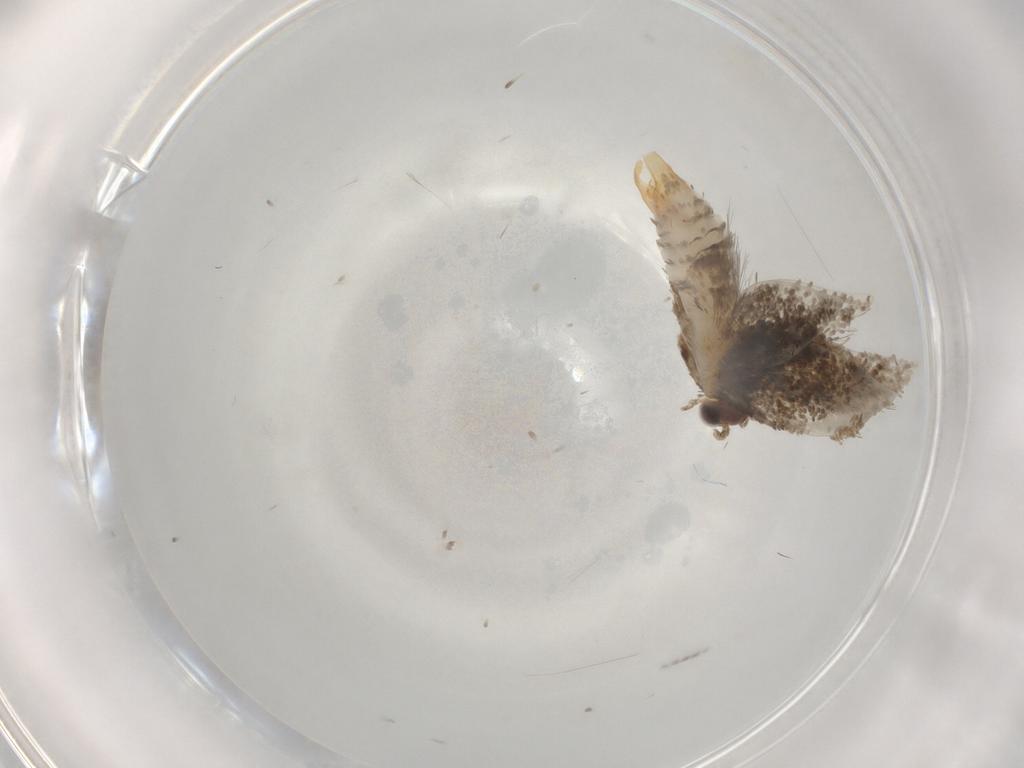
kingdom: Animalia
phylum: Arthropoda
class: Insecta
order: Lepidoptera
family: Tineidae
